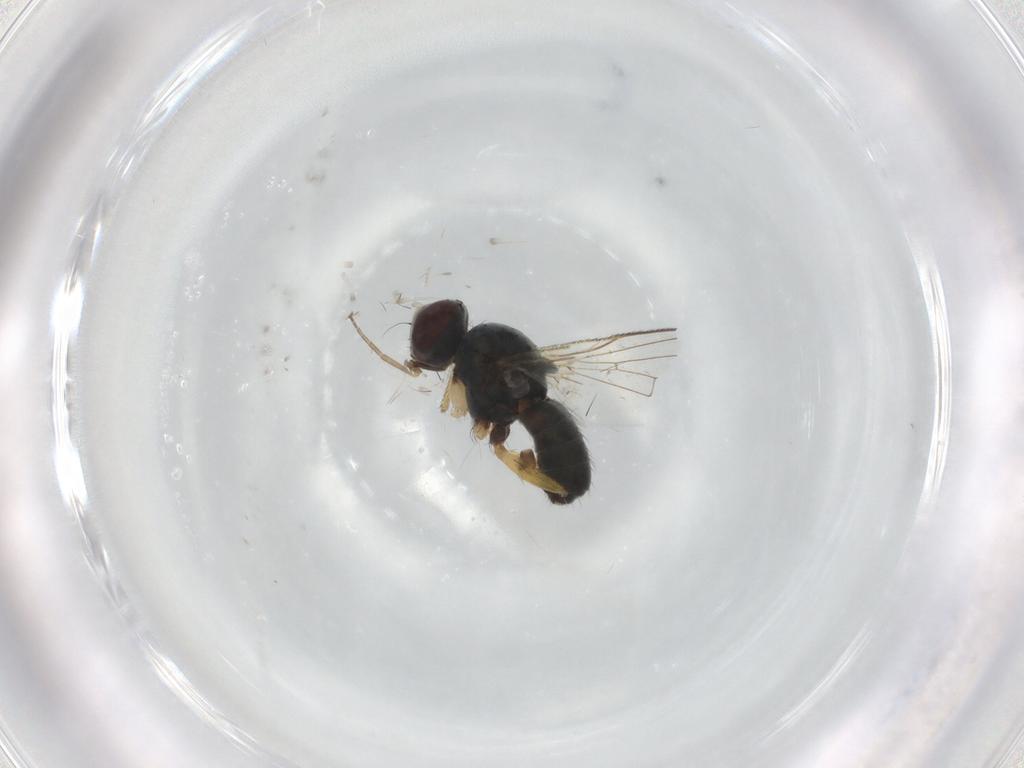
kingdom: Animalia
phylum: Arthropoda
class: Insecta
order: Diptera
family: Muscidae
